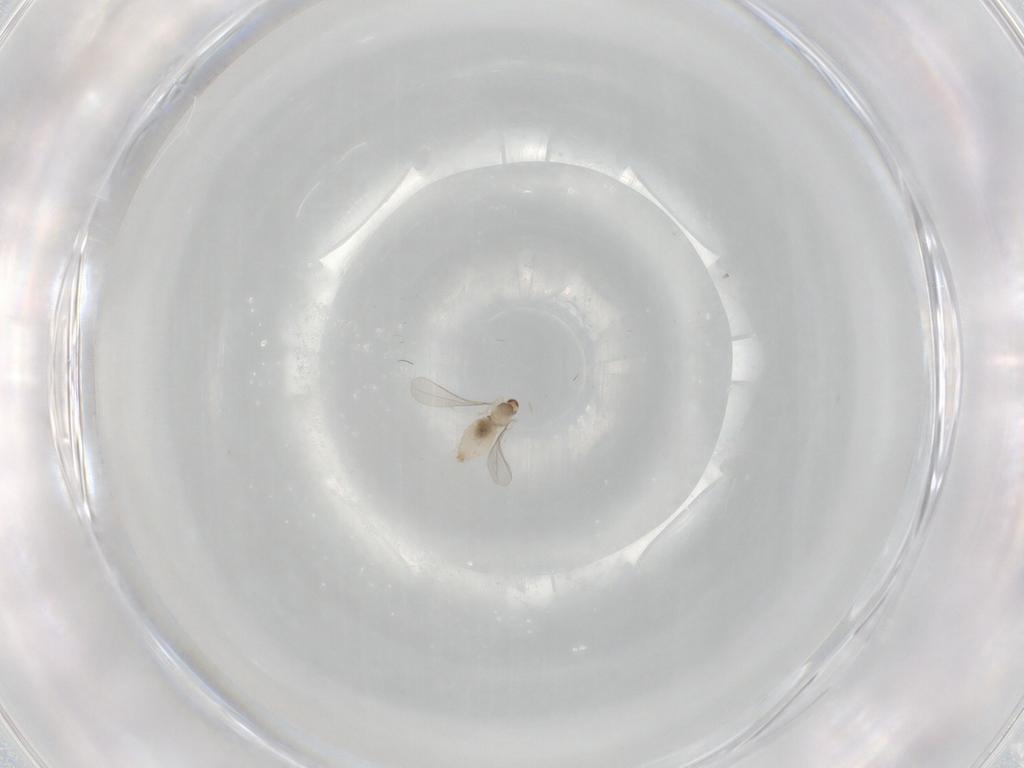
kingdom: Animalia
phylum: Arthropoda
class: Insecta
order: Diptera
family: Cecidomyiidae
